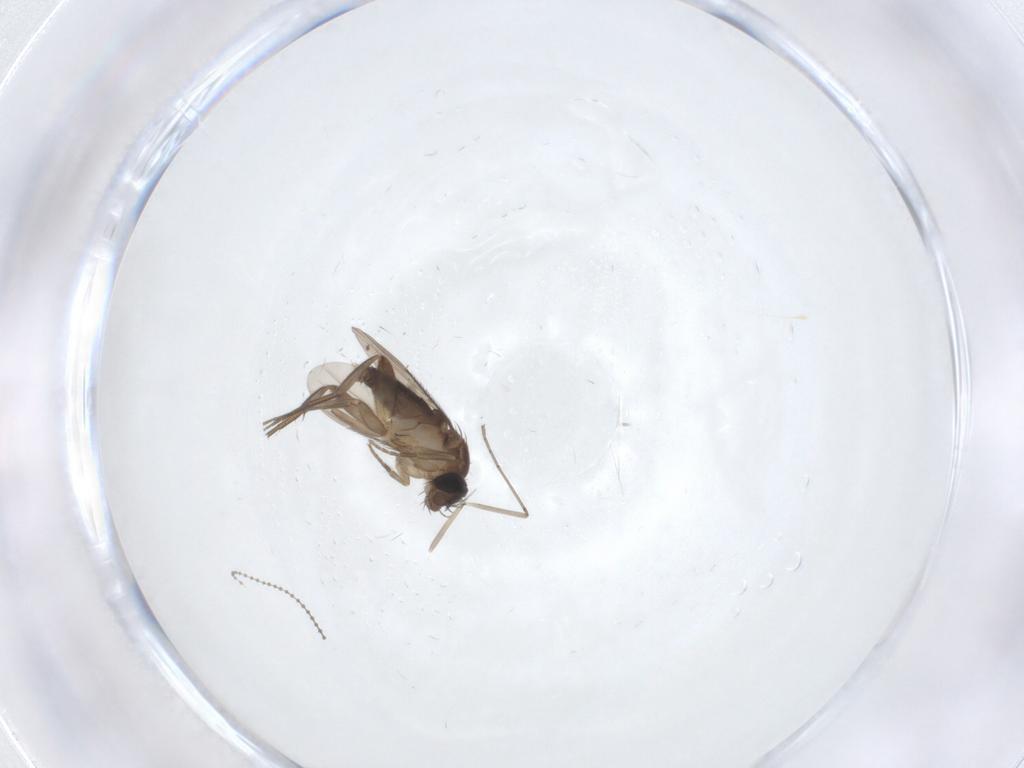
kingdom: Animalia
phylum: Arthropoda
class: Insecta
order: Diptera
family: Phoridae
